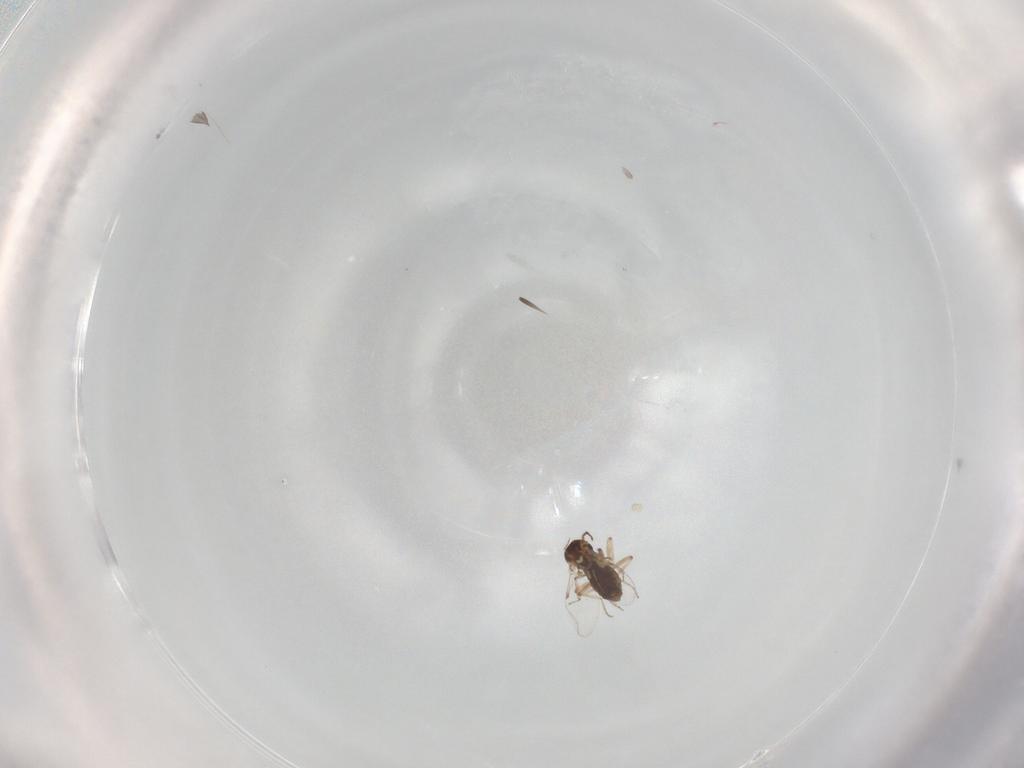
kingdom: Animalia
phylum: Arthropoda
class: Insecta
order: Diptera
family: Ceratopogonidae
